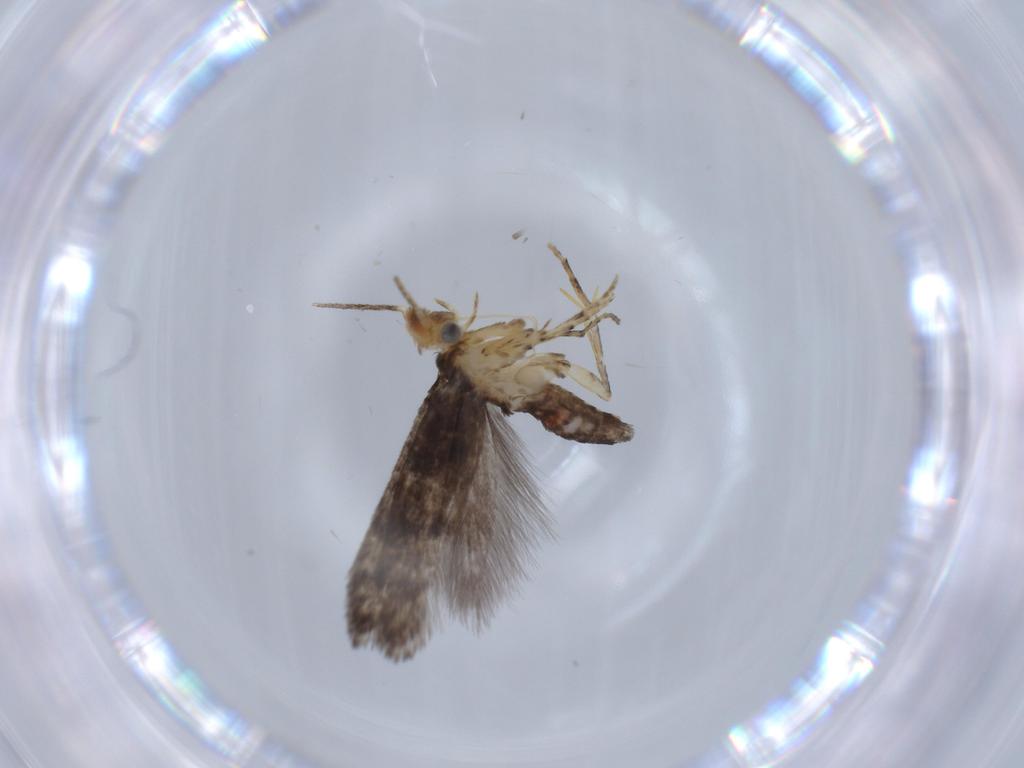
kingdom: Animalia
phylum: Arthropoda
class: Insecta
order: Lepidoptera
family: Argyresthiidae
